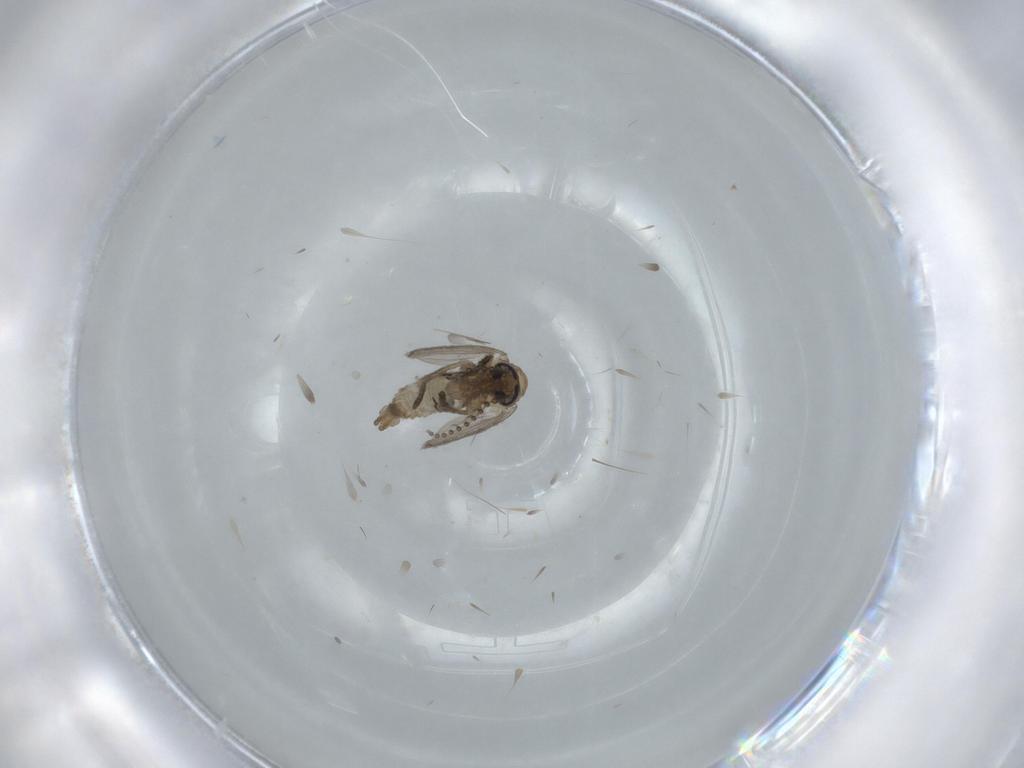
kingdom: Animalia
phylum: Arthropoda
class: Insecta
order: Diptera
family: Psychodidae
